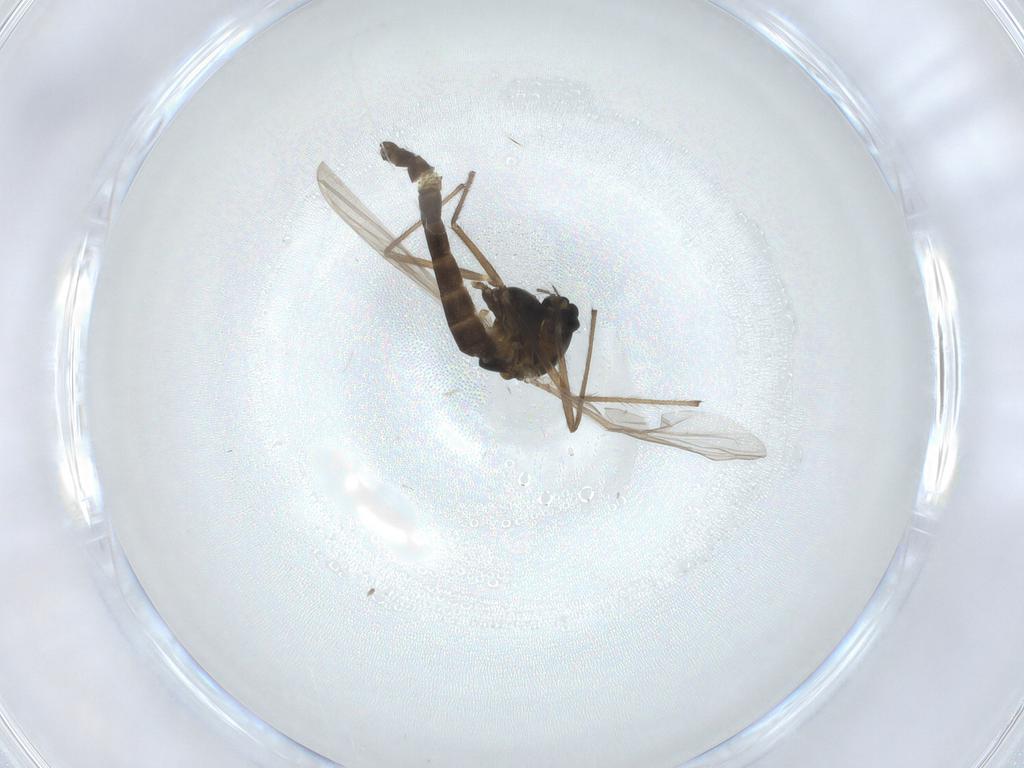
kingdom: Animalia
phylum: Arthropoda
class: Insecta
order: Diptera
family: Sciaridae
